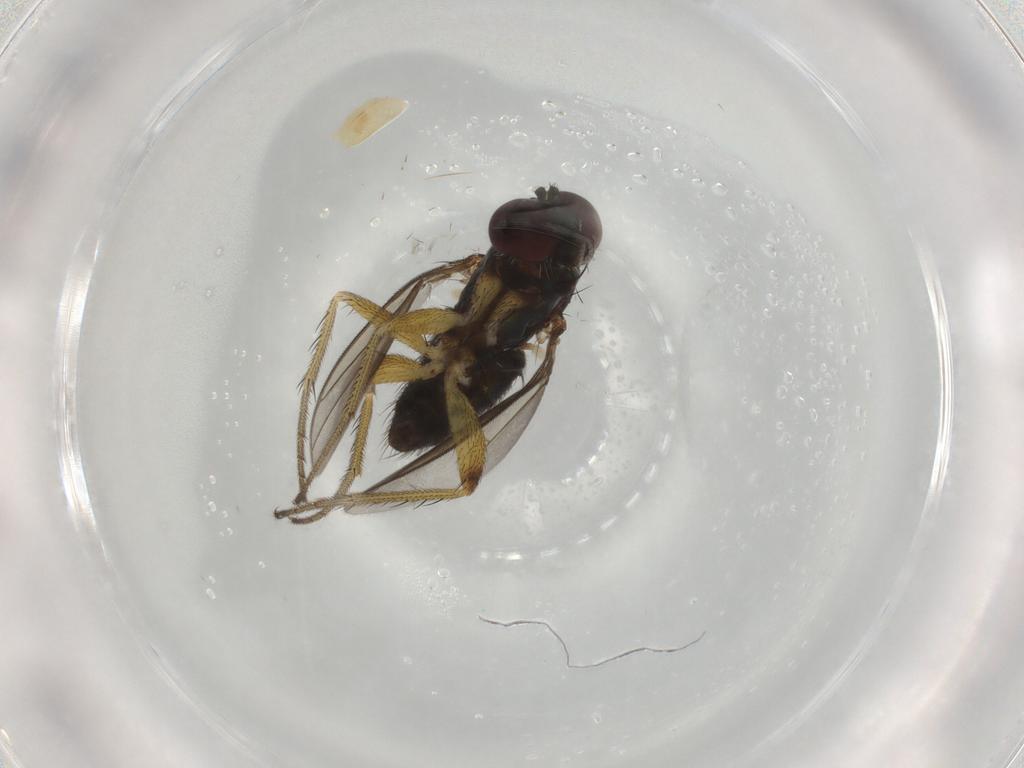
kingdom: Animalia
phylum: Arthropoda
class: Insecta
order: Diptera
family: Dolichopodidae
